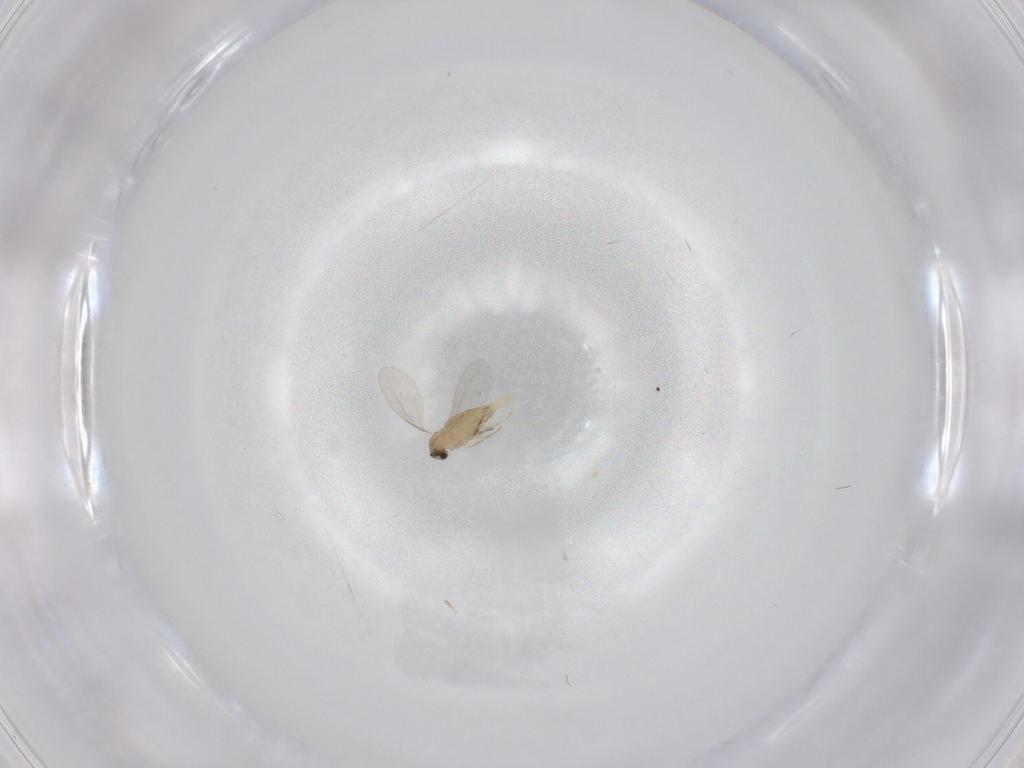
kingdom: Animalia
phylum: Arthropoda
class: Insecta
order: Diptera
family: Cecidomyiidae
